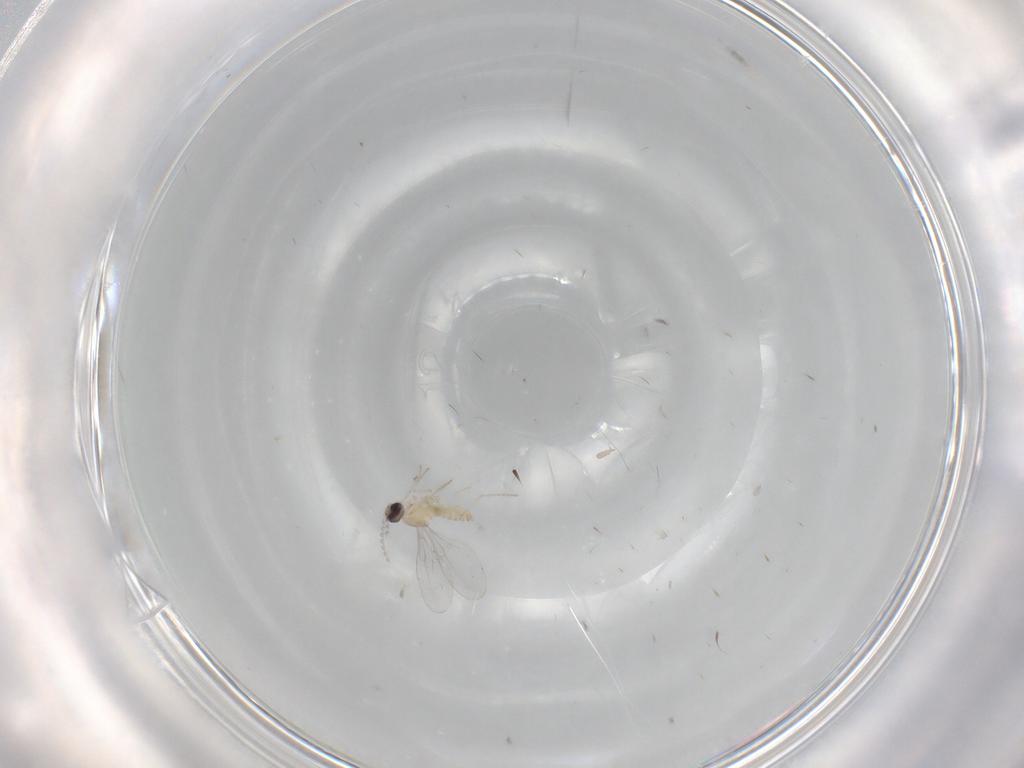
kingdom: Animalia
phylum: Arthropoda
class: Insecta
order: Diptera
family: Cecidomyiidae
